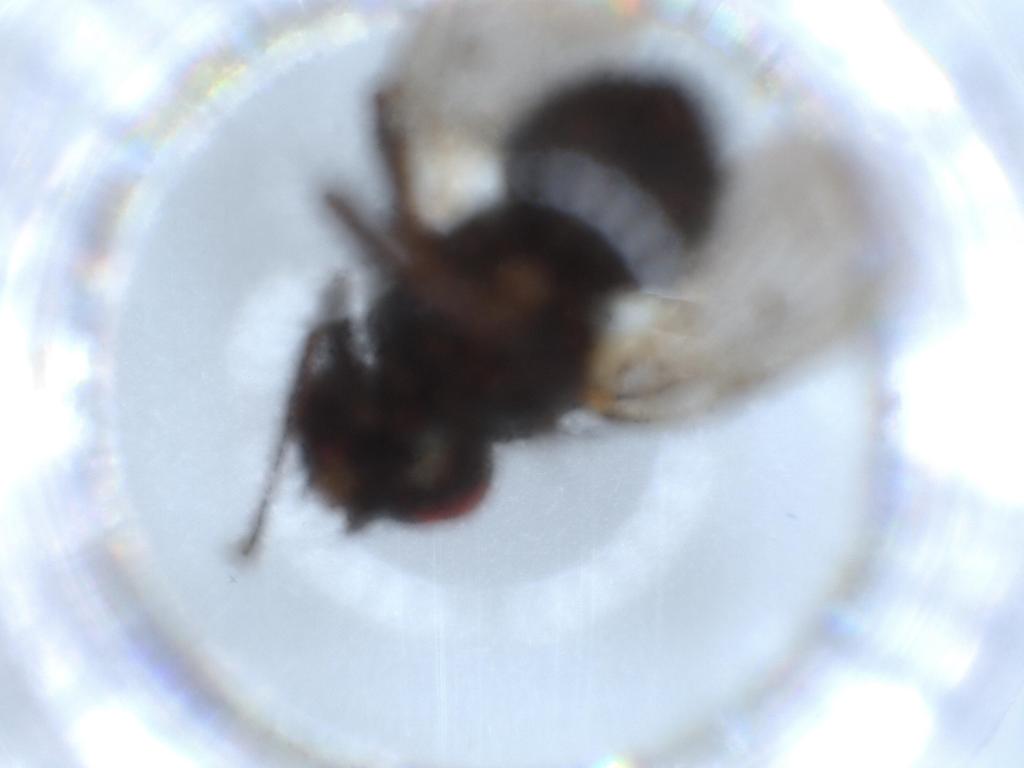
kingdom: Animalia
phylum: Arthropoda
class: Insecta
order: Diptera
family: Muscidae
